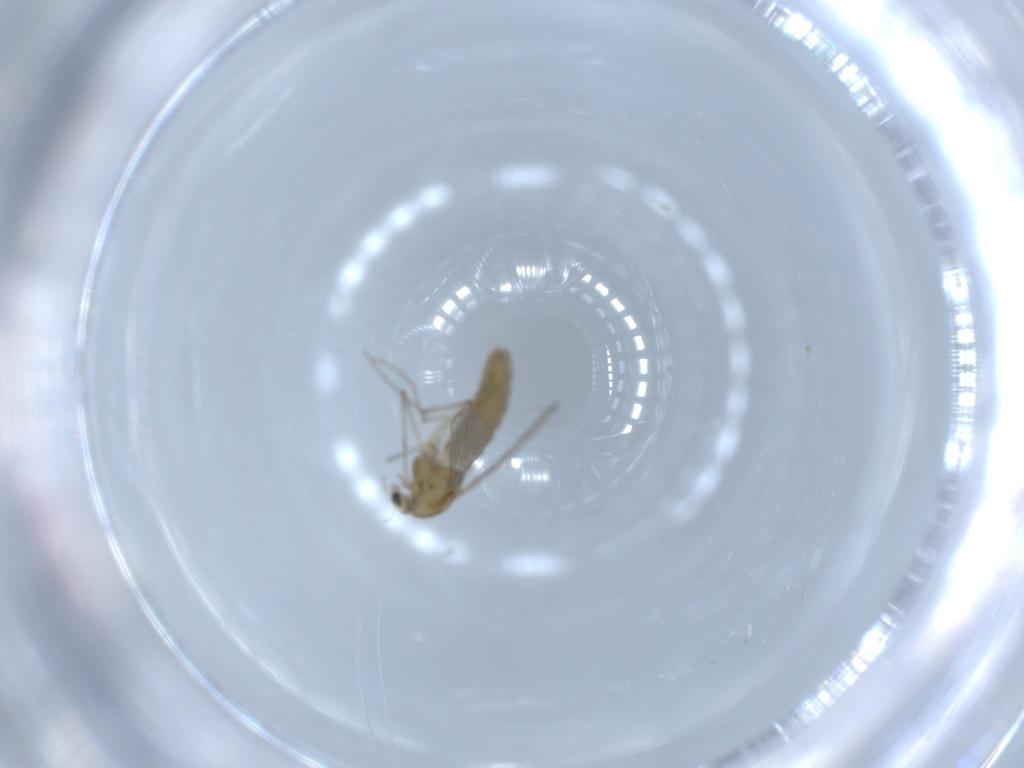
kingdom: Animalia
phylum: Arthropoda
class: Insecta
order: Diptera
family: Chironomidae
